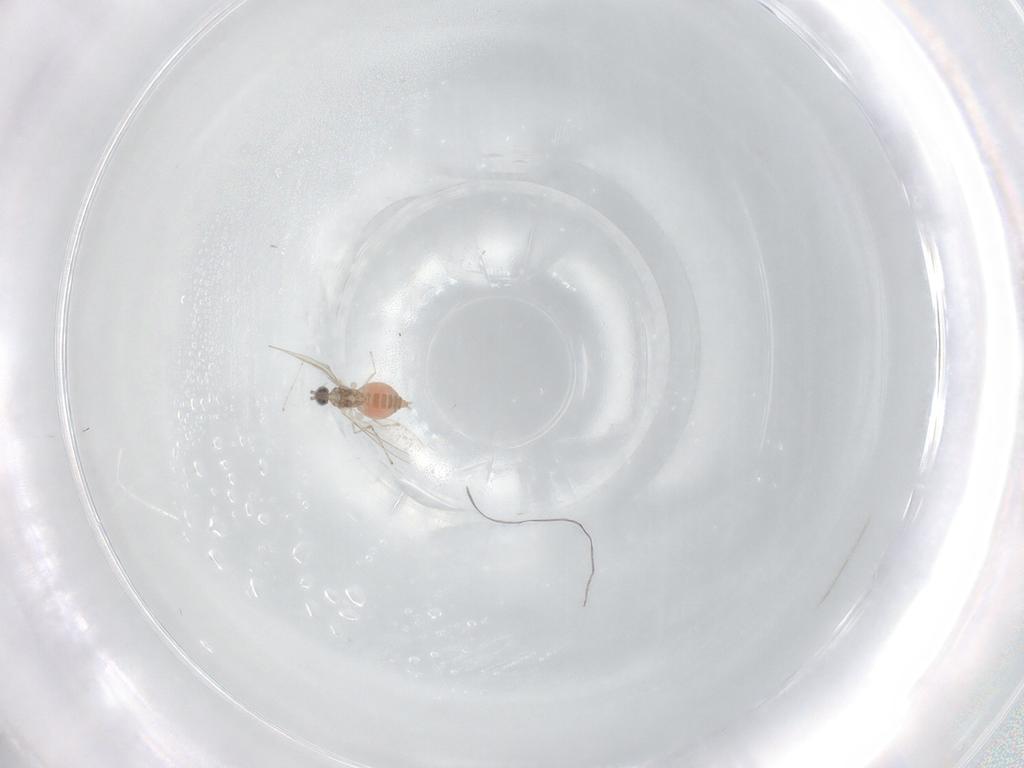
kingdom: Animalia
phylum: Arthropoda
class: Insecta
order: Diptera
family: Cecidomyiidae
